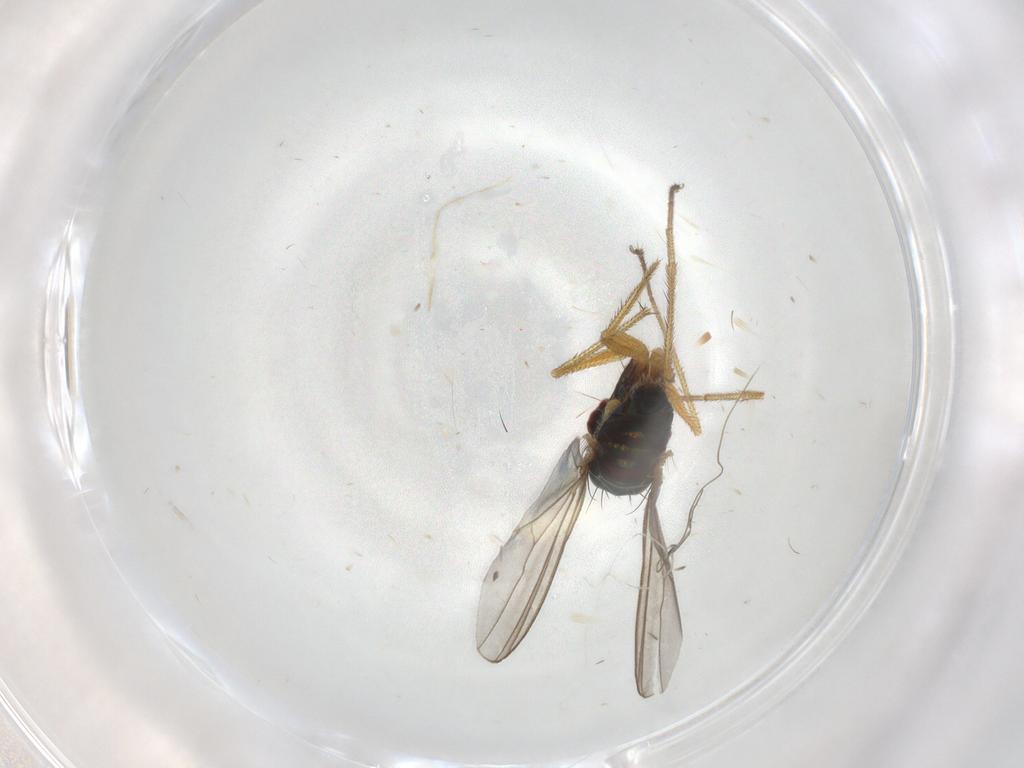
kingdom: Animalia
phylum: Arthropoda
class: Insecta
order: Diptera
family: Dolichopodidae
